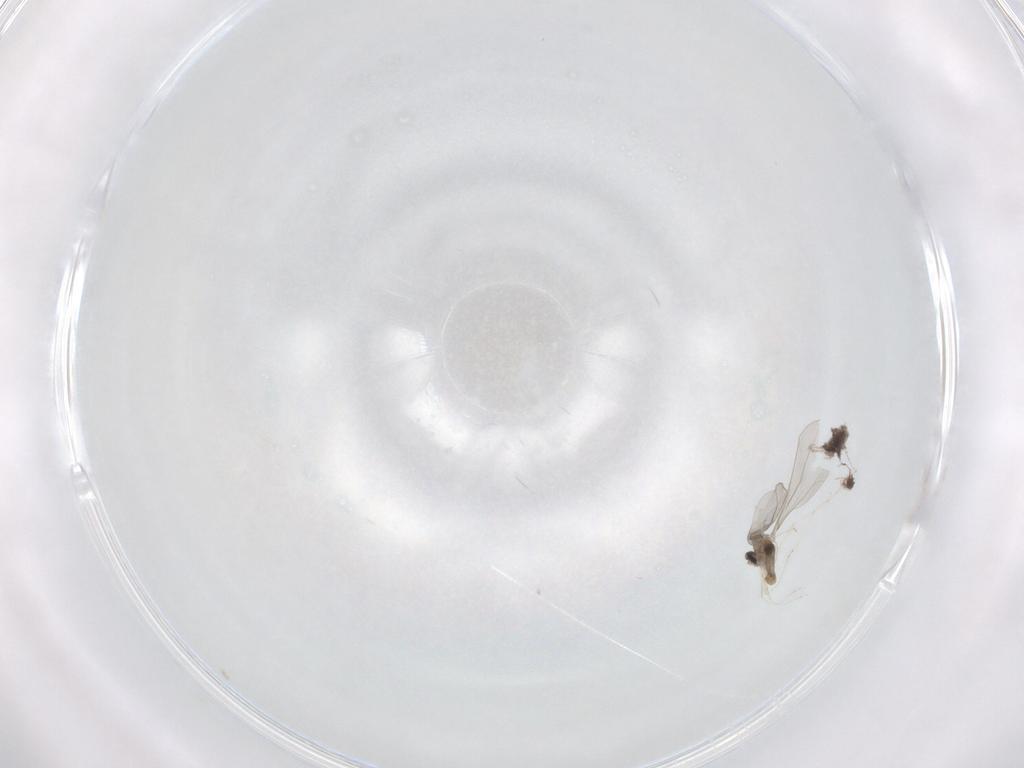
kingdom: Animalia
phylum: Arthropoda
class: Insecta
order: Diptera
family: Cecidomyiidae
